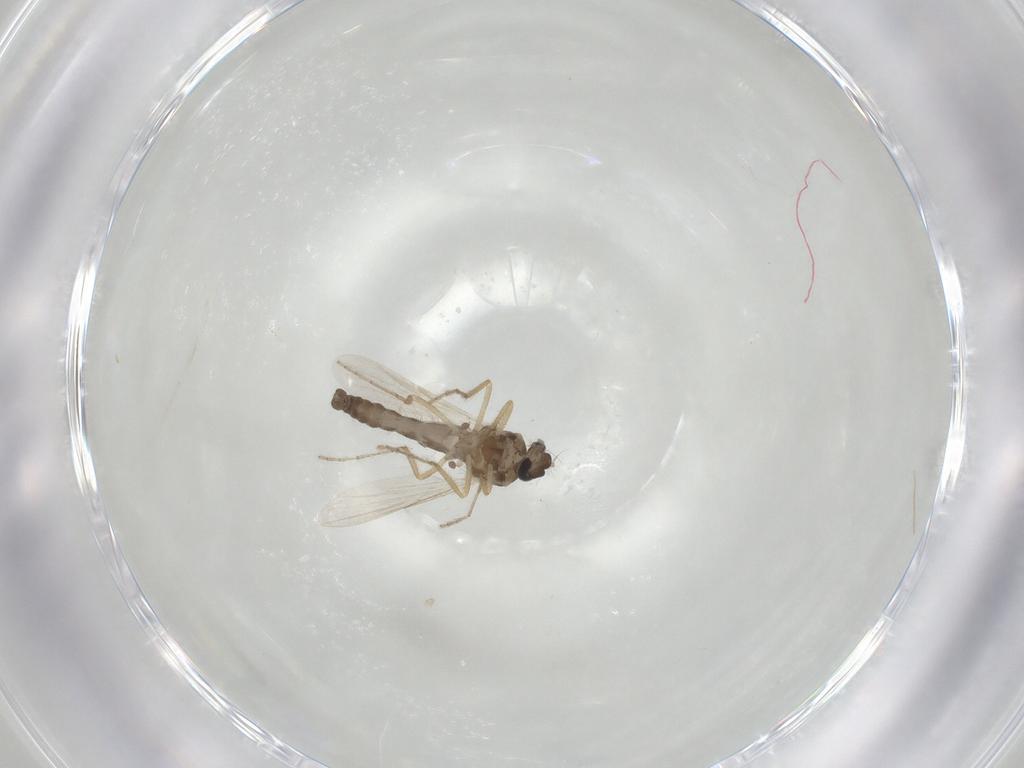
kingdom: Animalia
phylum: Arthropoda
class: Insecta
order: Diptera
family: Ceratopogonidae
